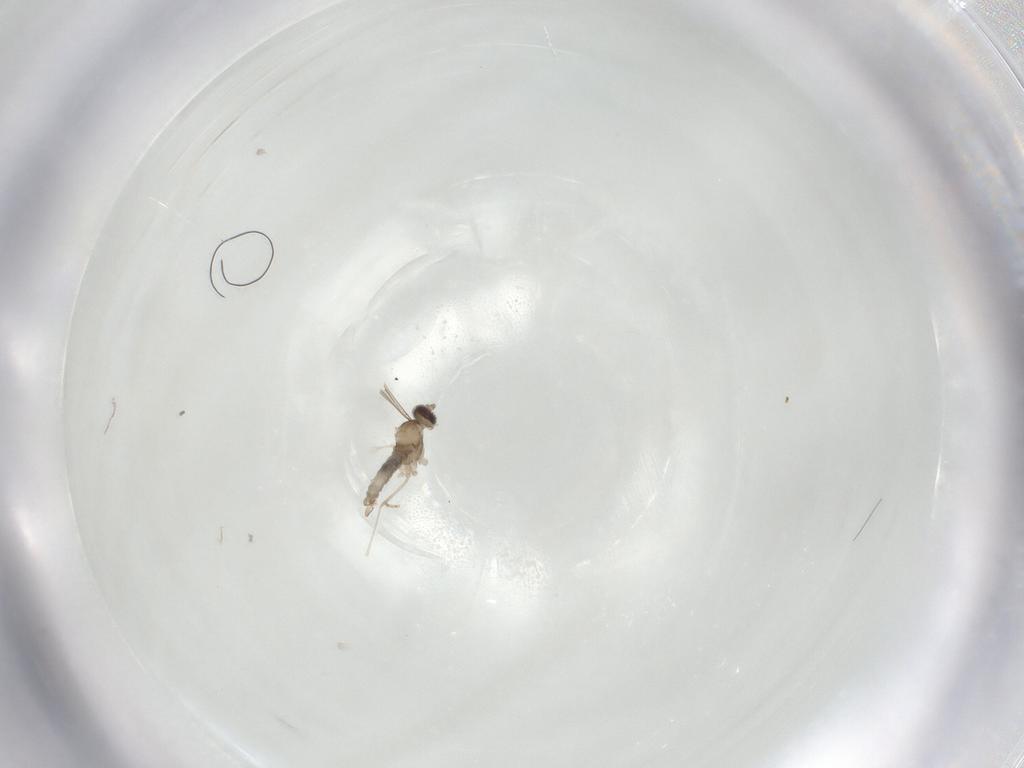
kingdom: Animalia
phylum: Arthropoda
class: Insecta
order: Diptera
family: Cecidomyiidae
